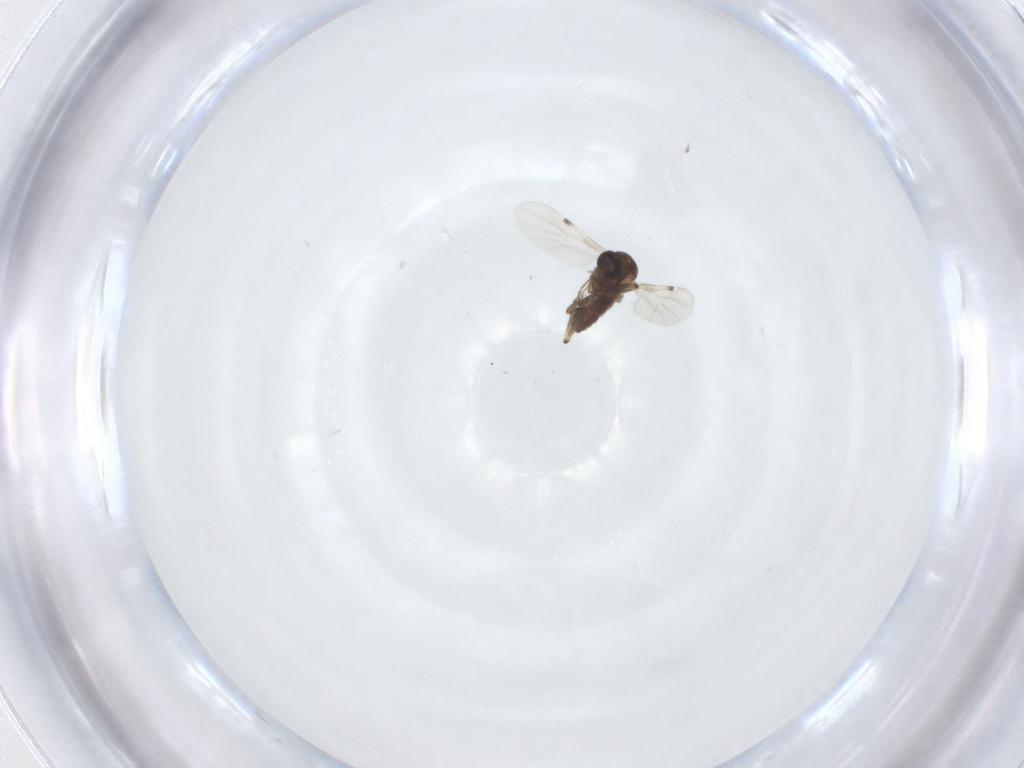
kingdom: Animalia
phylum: Arthropoda
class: Insecta
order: Diptera
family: Ceratopogonidae
